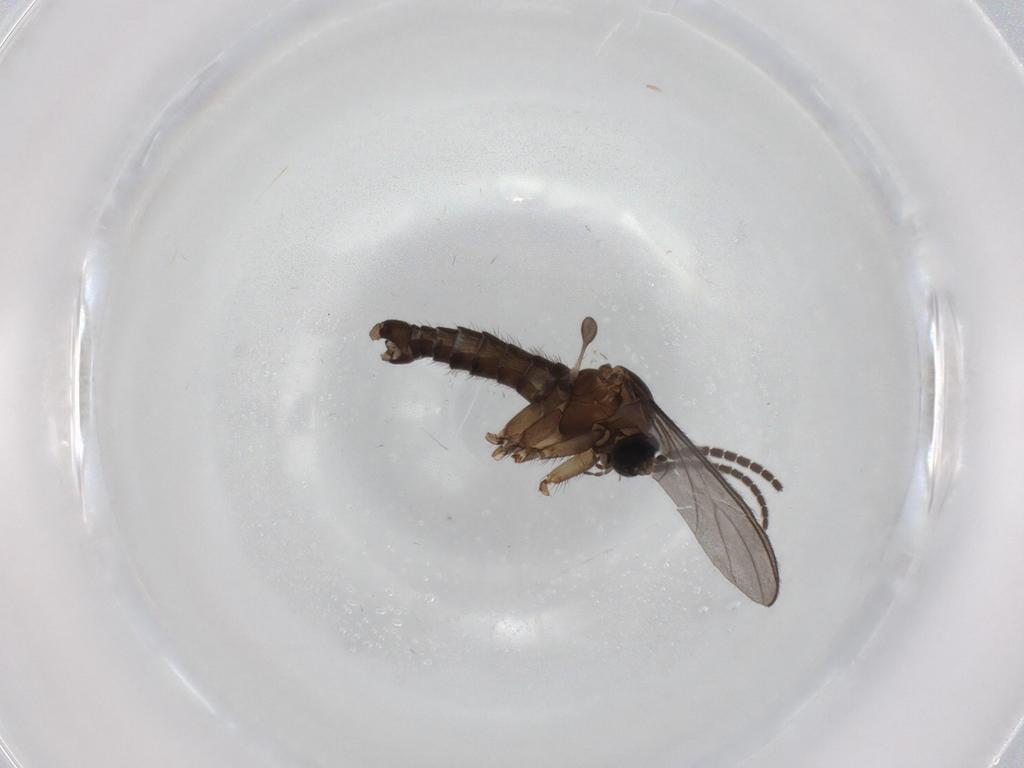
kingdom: Animalia
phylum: Arthropoda
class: Insecta
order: Diptera
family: Sciaridae
